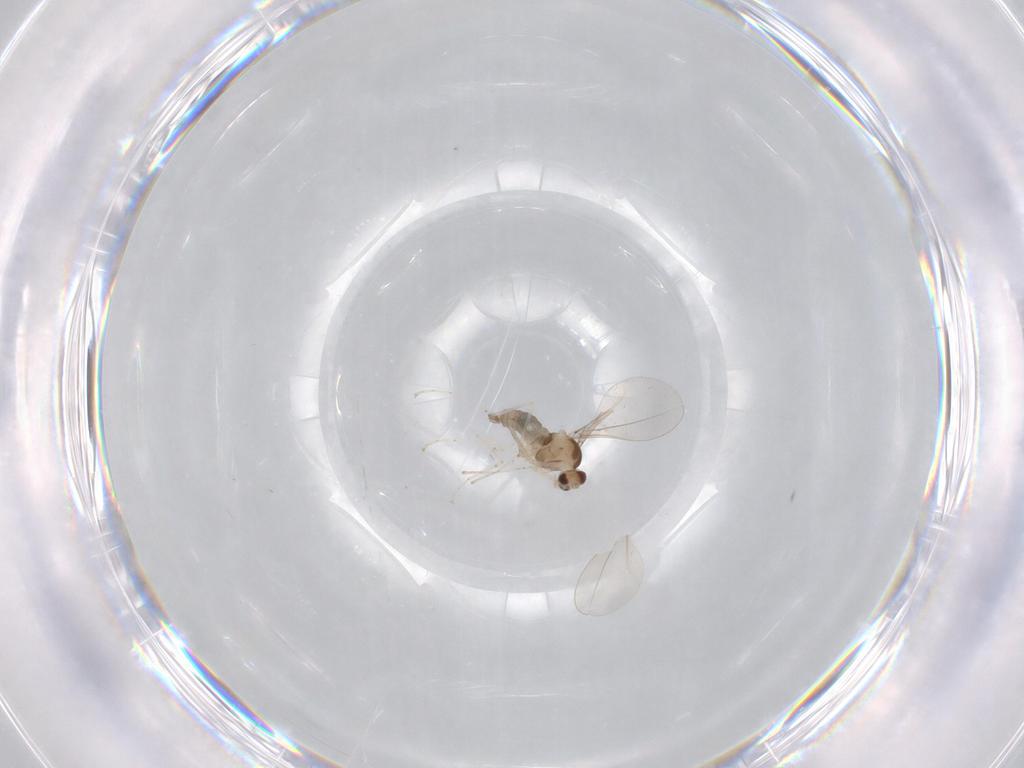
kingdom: Animalia
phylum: Arthropoda
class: Insecta
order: Diptera
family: Cecidomyiidae
